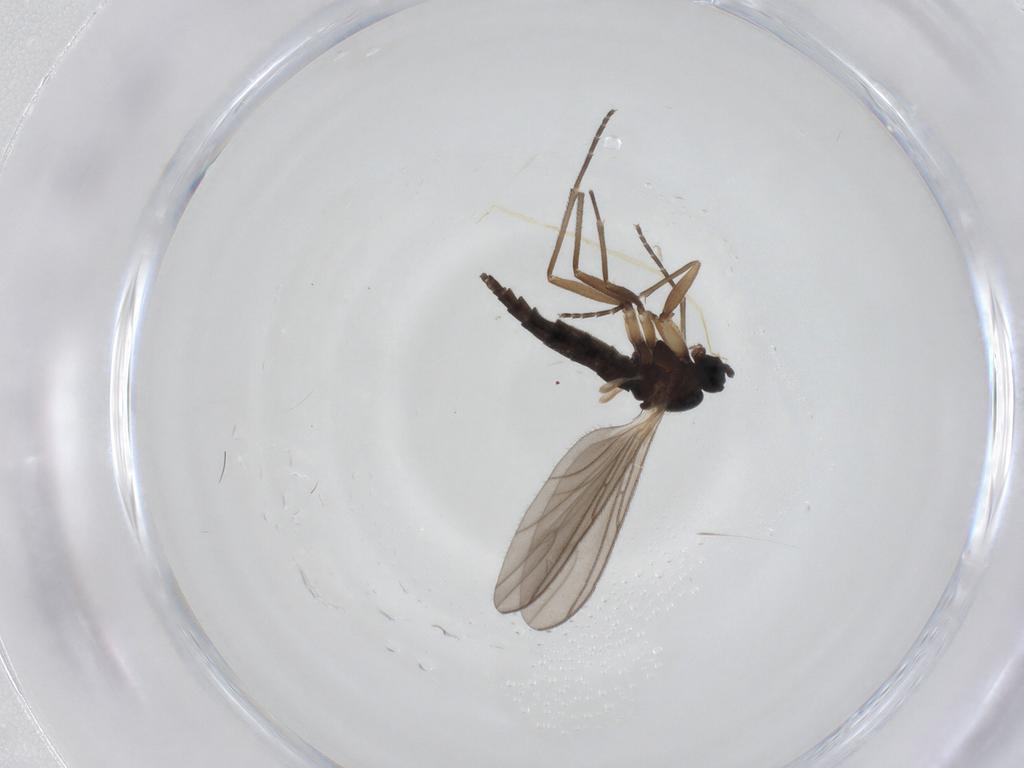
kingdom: Animalia
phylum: Arthropoda
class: Insecta
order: Diptera
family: Sciaridae
